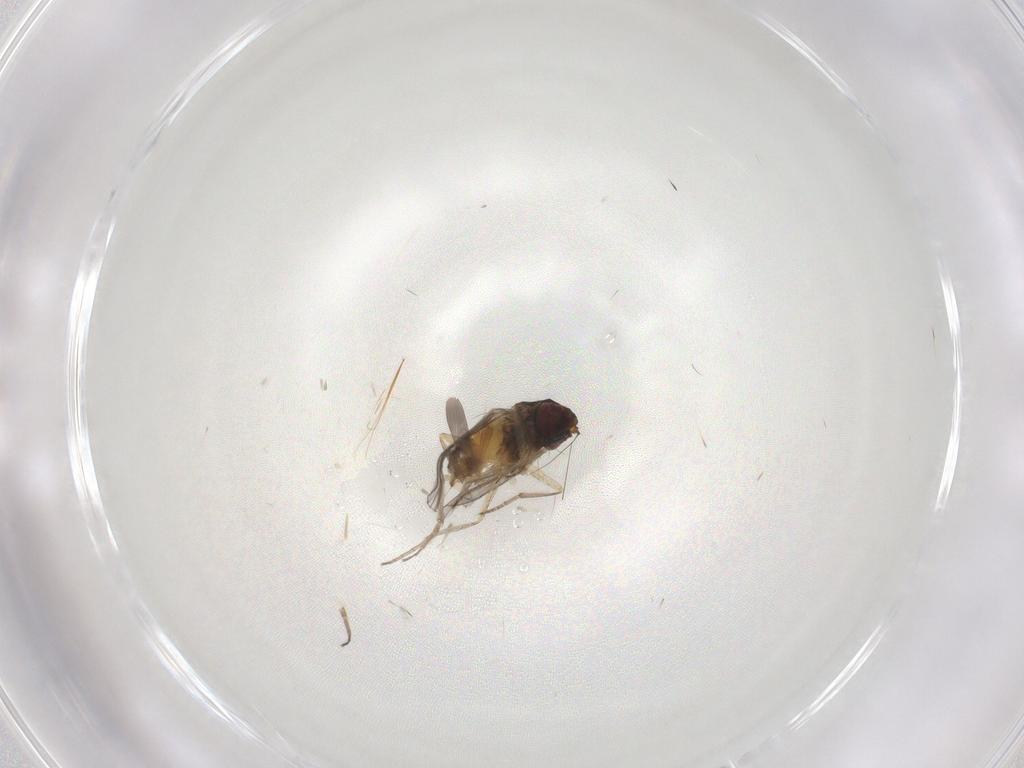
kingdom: Animalia
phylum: Arthropoda
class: Insecta
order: Diptera
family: Dolichopodidae
